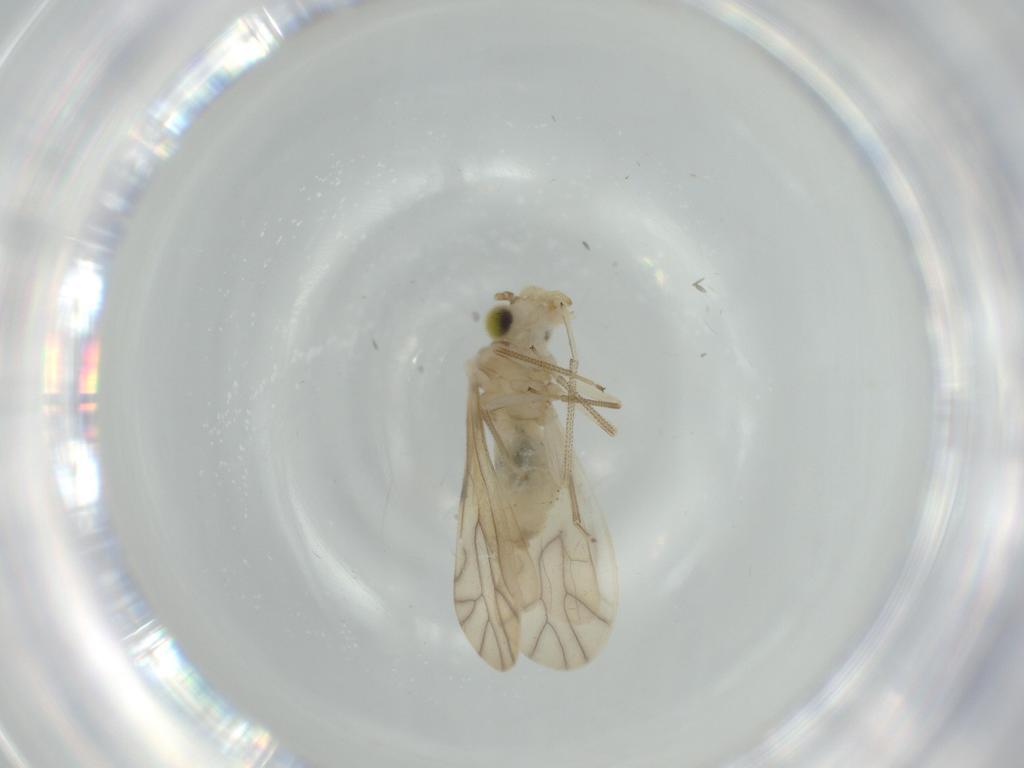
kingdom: Animalia
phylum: Arthropoda
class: Insecta
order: Psocodea
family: Caeciliusidae
